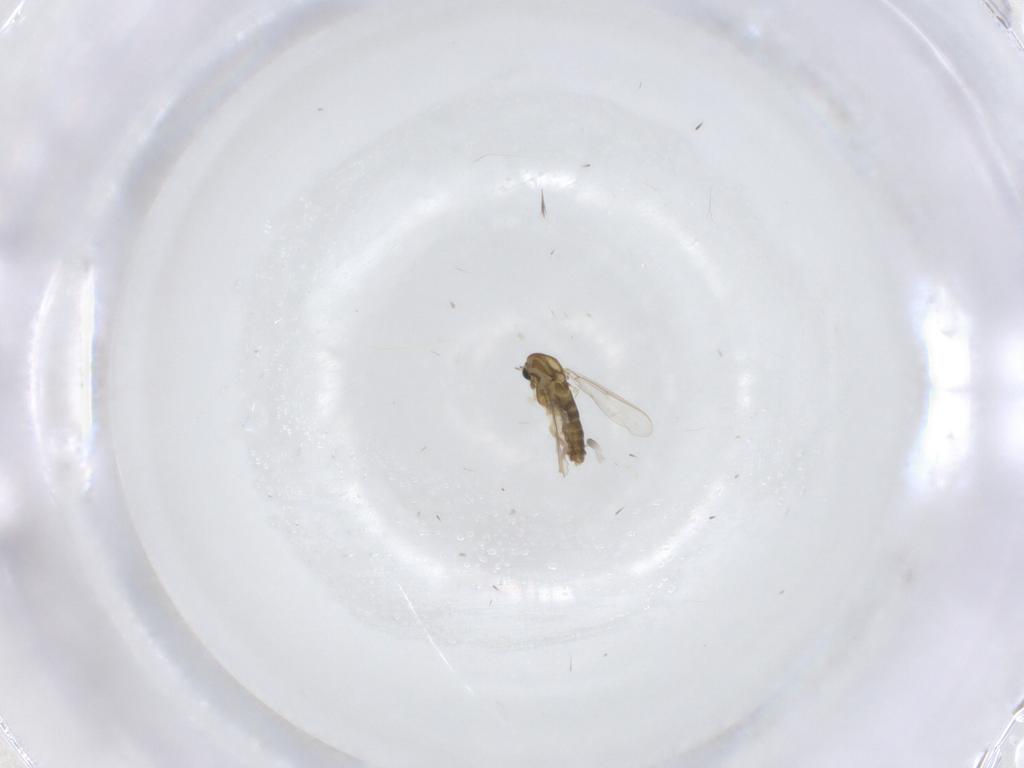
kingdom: Animalia
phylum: Arthropoda
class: Insecta
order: Diptera
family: Chironomidae
